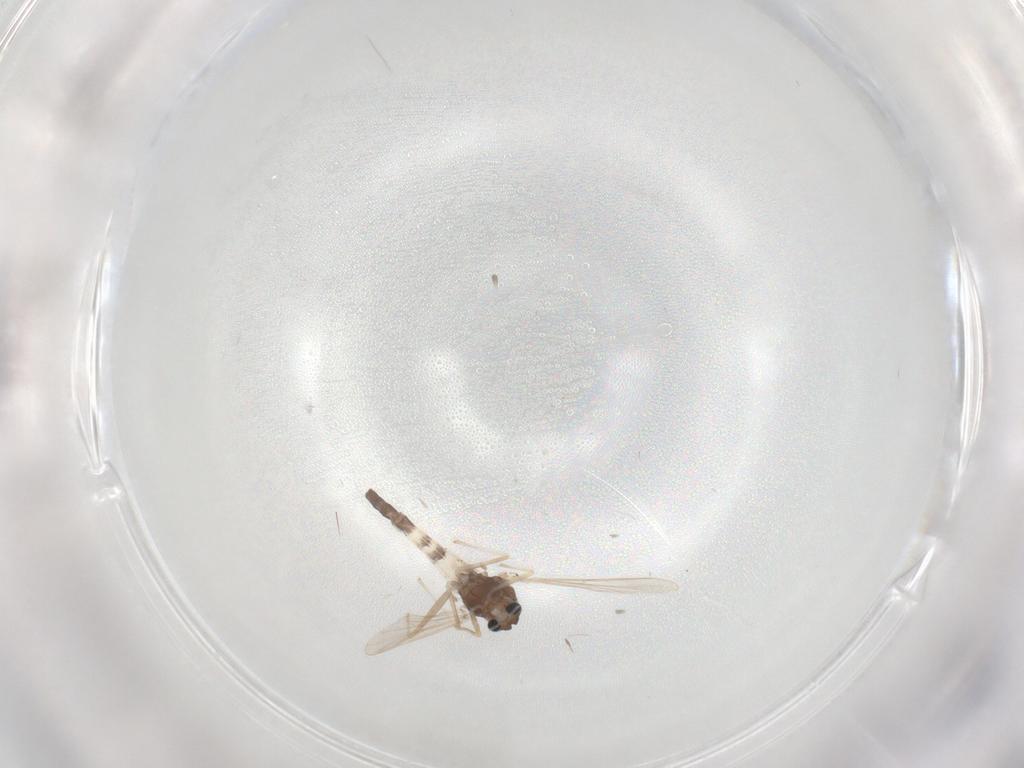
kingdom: Animalia
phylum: Arthropoda
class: Insecta
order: Diptera
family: Chironomidae
